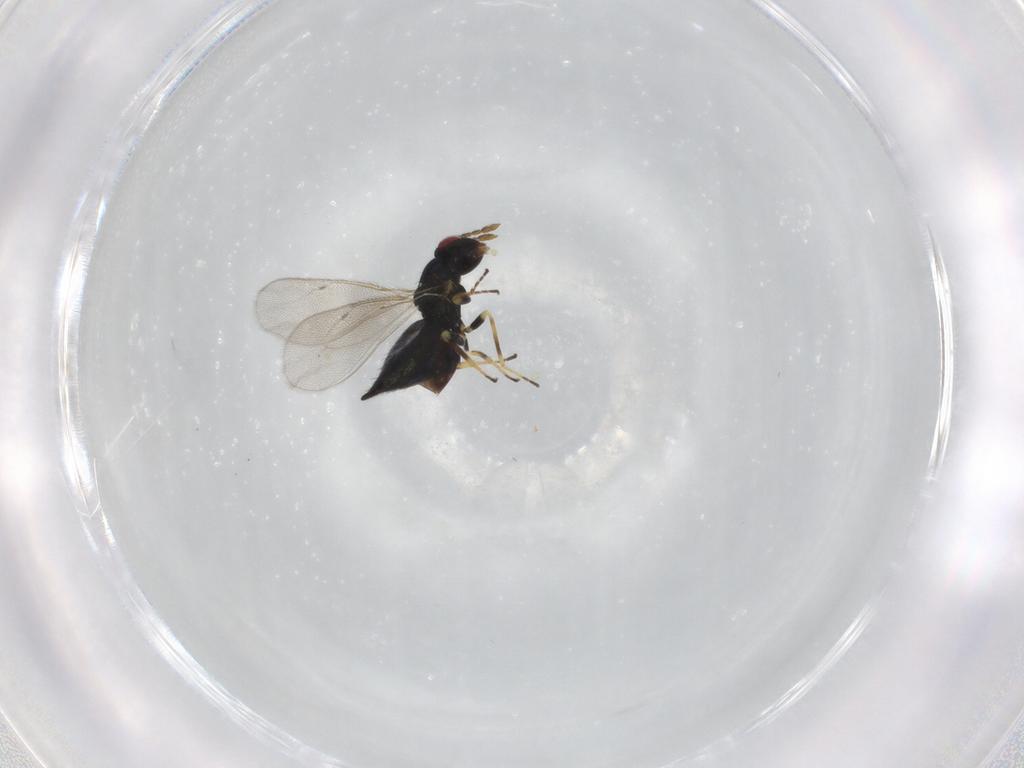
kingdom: Animalia
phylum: Arthropoda
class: Insecta
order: Hymenoptera
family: Eulophidae
